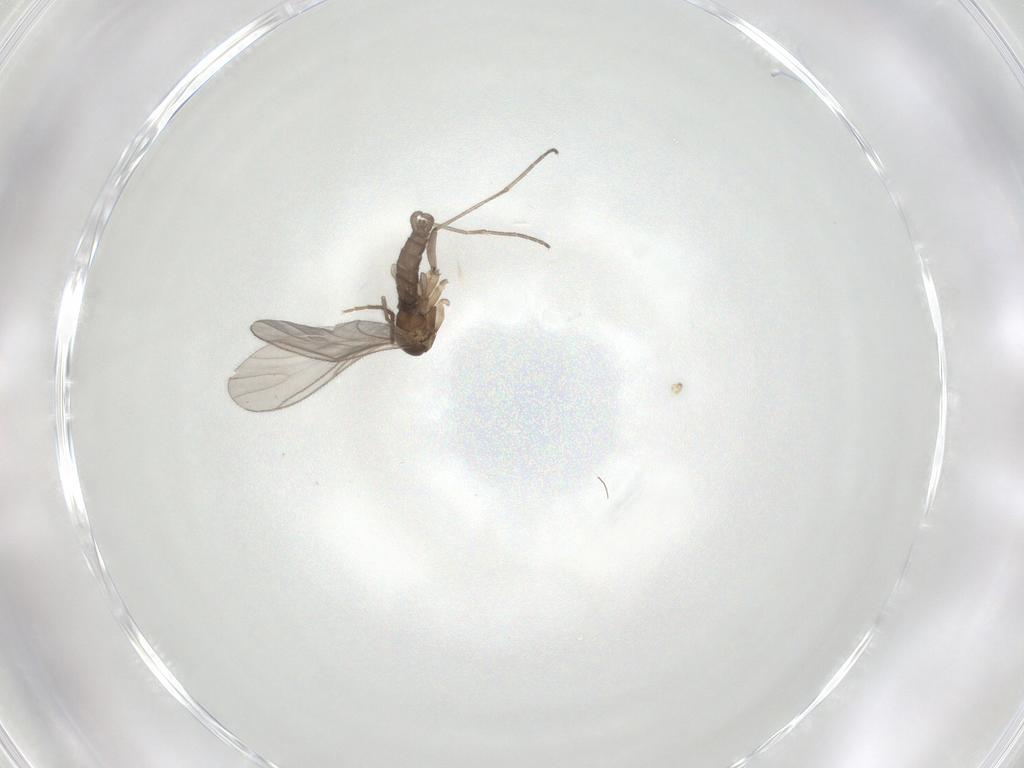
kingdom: Animalia
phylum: Arthropoda
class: Insecta
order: Diptera
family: Sciaridae
